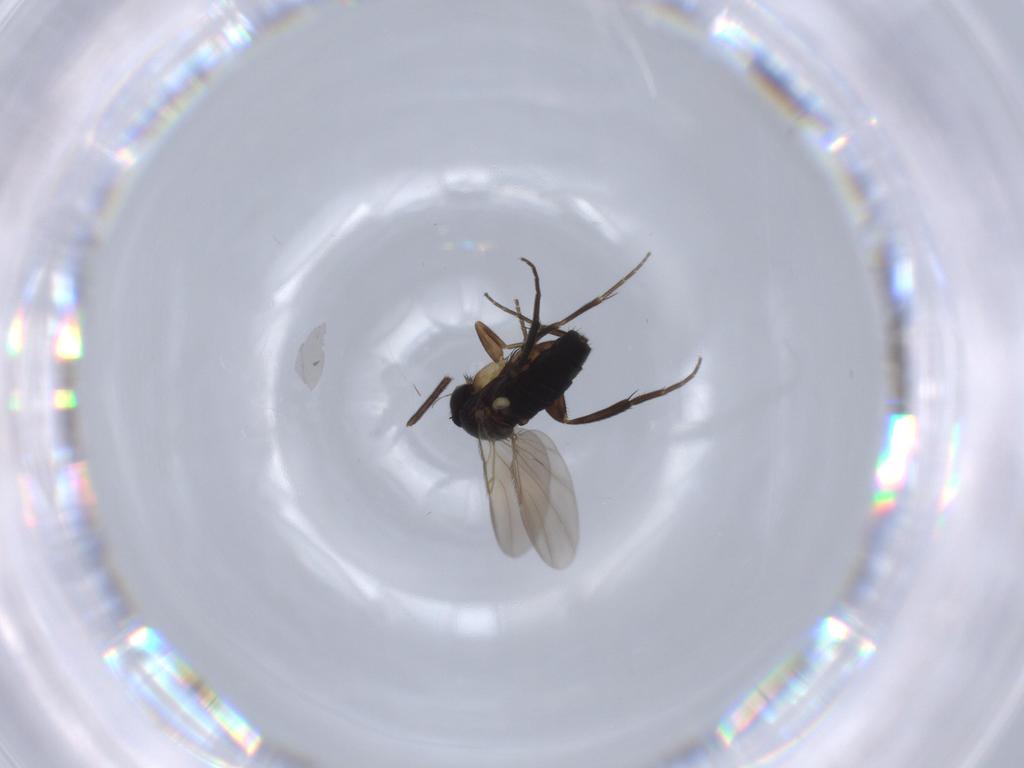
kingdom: Animalia
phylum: Arthropoda
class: Insecta
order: Diptera
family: Phoridae
